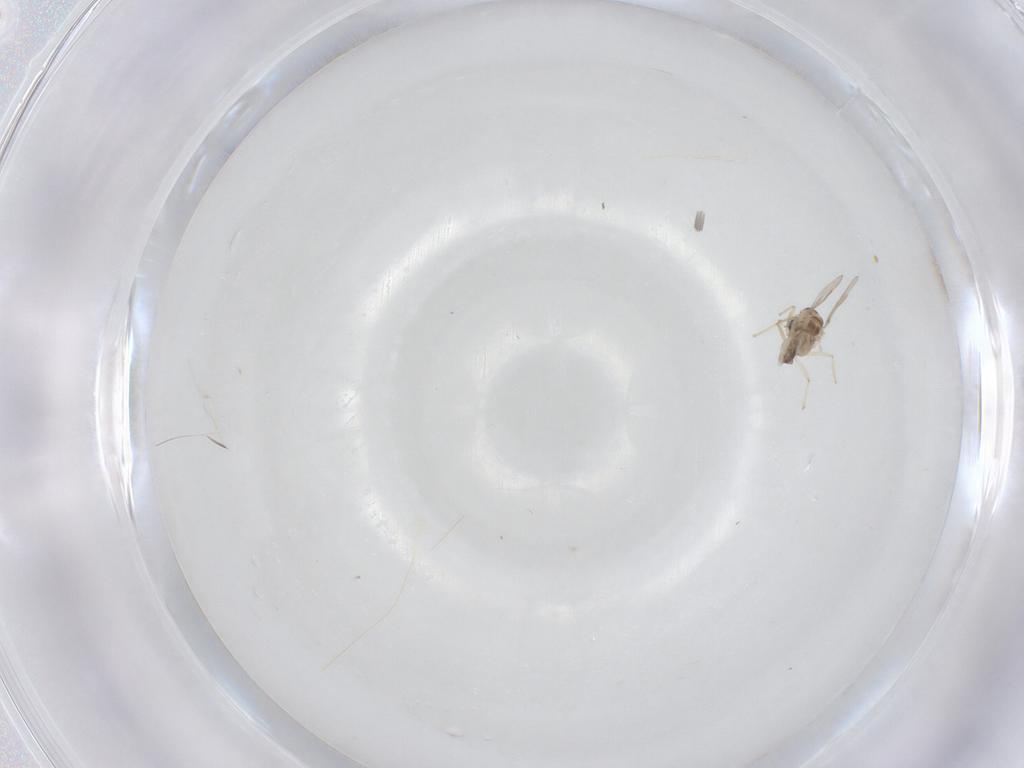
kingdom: Animalia
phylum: Arthropoda
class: Insecta
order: Diptera
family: Chironomidae
